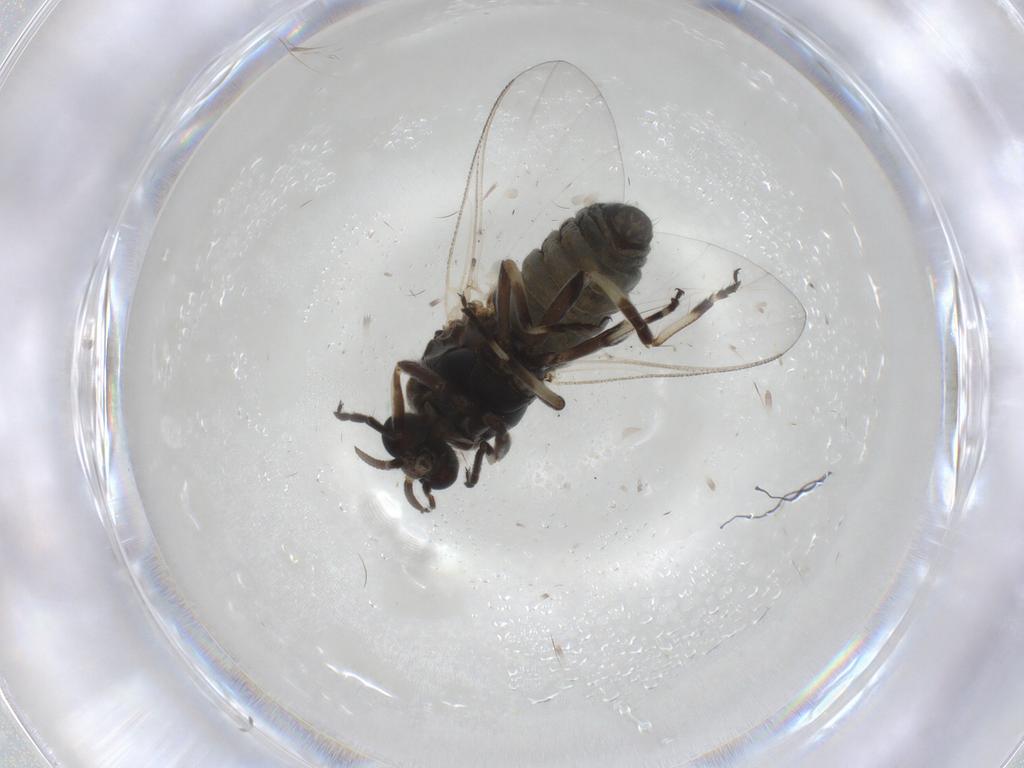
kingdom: Animalia
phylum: Arthropoda
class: Insecta
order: Diptera
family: Simuliidae
